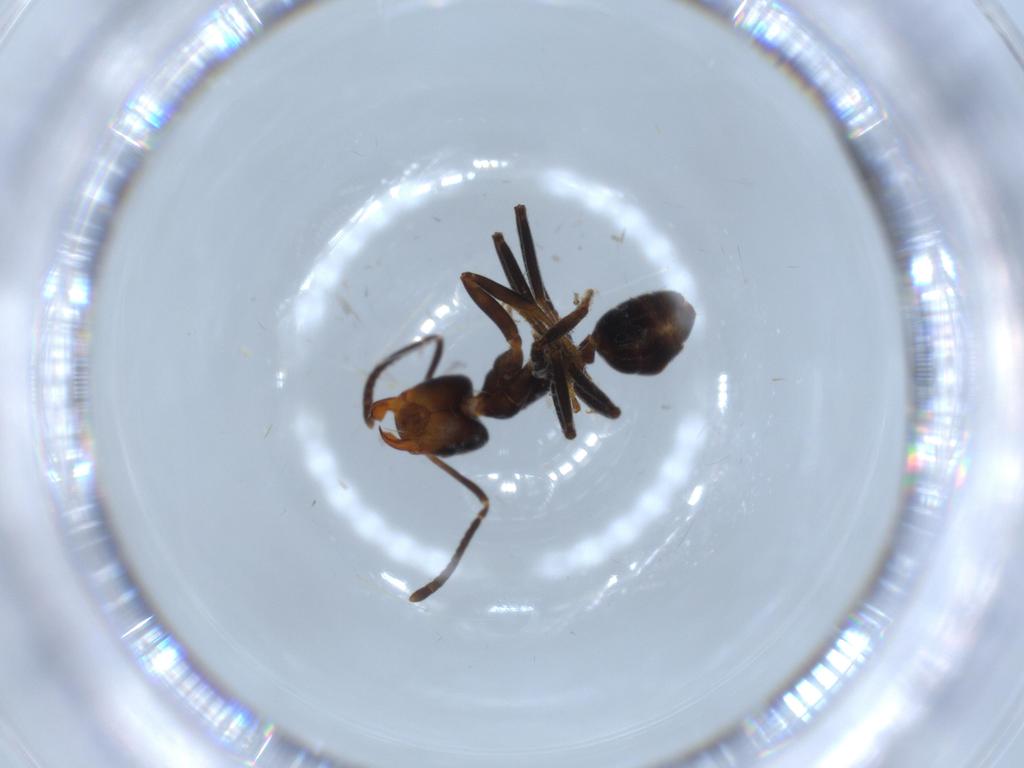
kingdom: Animalia
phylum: Arthropoda
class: Insecta
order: Hymenoptera
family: Formicidae
